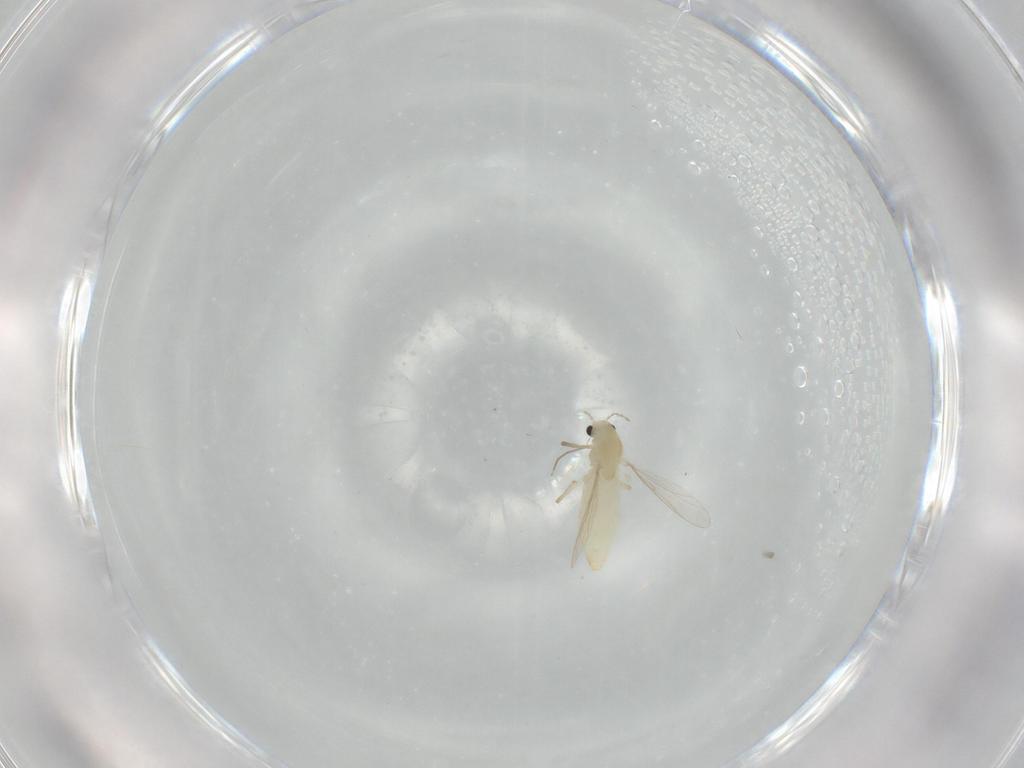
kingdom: Animalia
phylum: Arthropoda
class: Insecta
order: Diptera
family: Chironomidae
